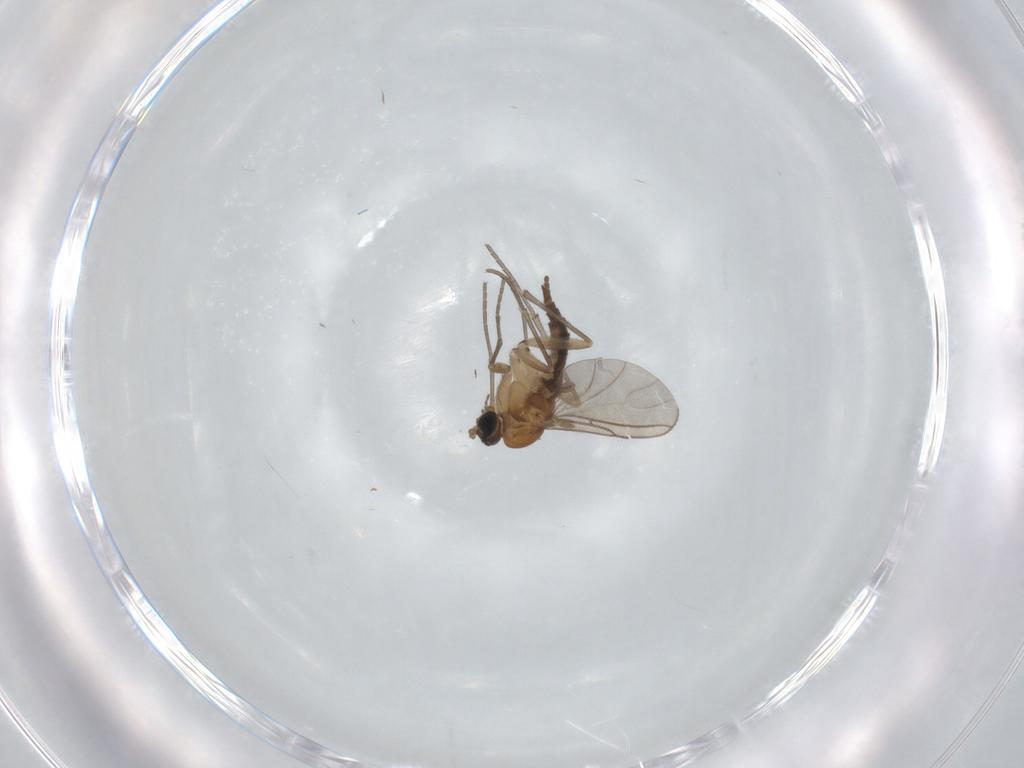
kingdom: Animalia
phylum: Arthropoda
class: Insecta
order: Diptera
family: Sciaridae
